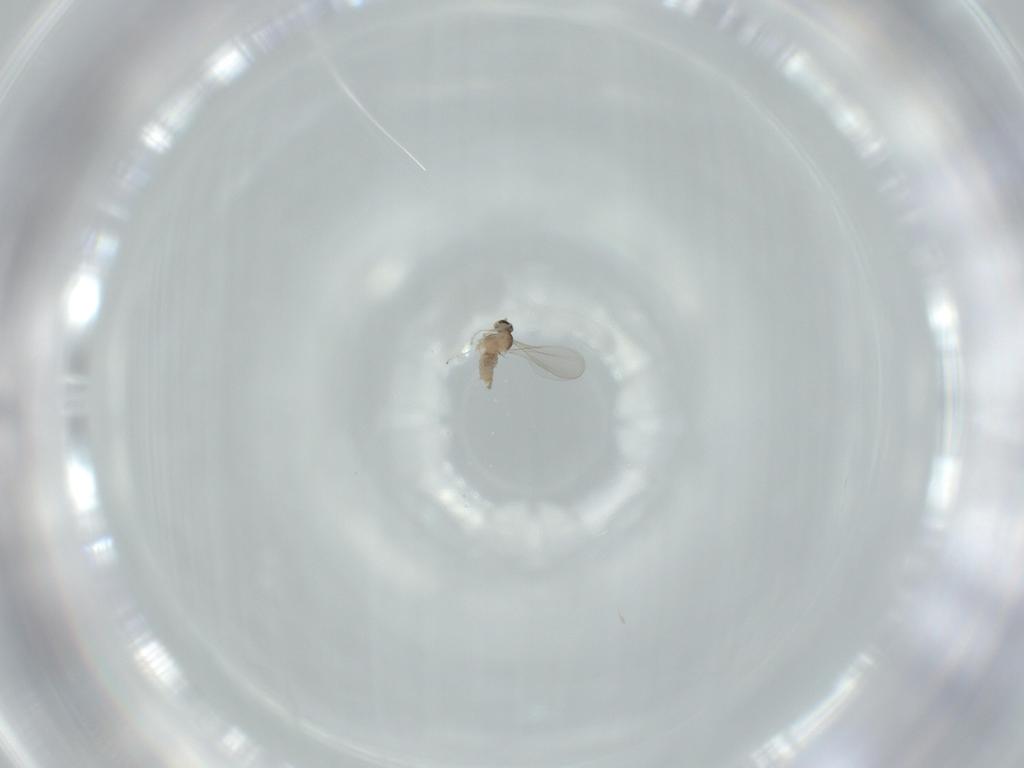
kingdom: Animalia
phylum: Arthropoda
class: Insecta
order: Diptera
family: Cecidomyiidae
